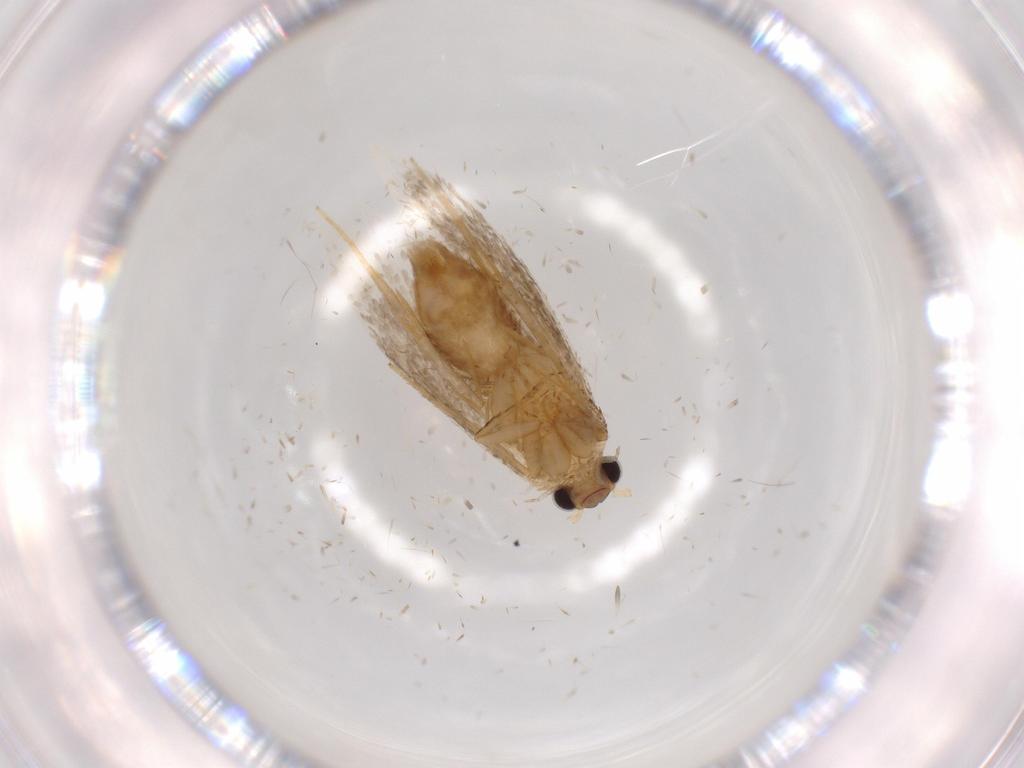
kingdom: Animalia
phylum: Arthropoda
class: Insecta
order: Lepidoptera
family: Tineidae
